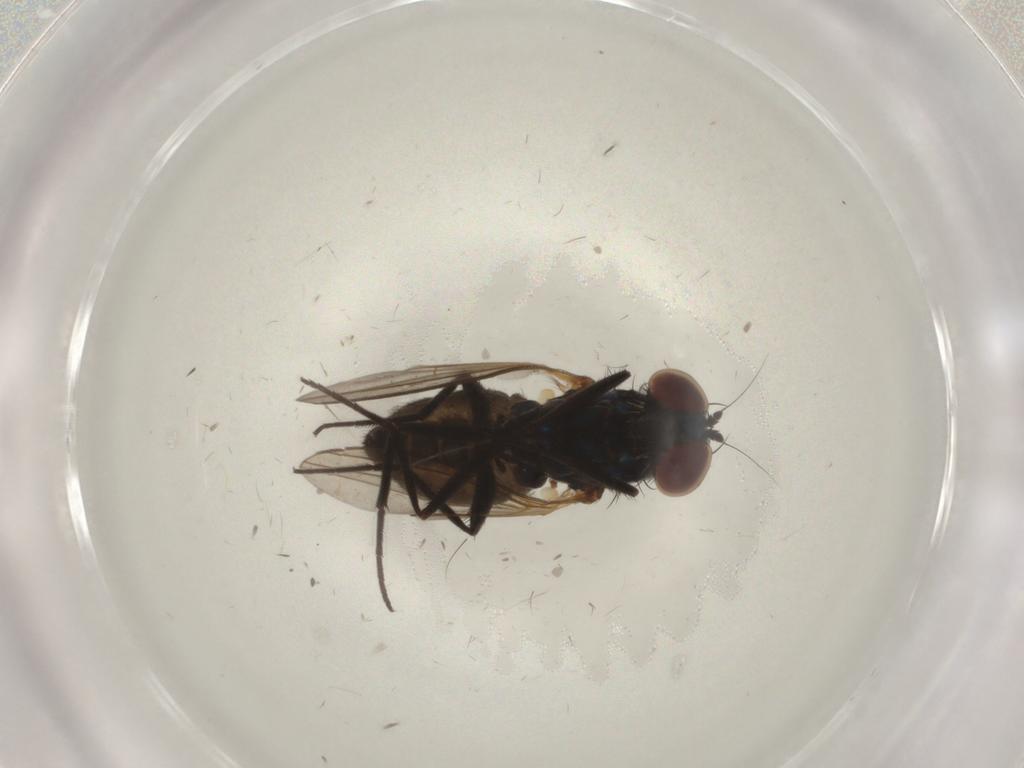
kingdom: Animalia
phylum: Arthropoda
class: Insecta
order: Diptera
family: Dolichopodidae
